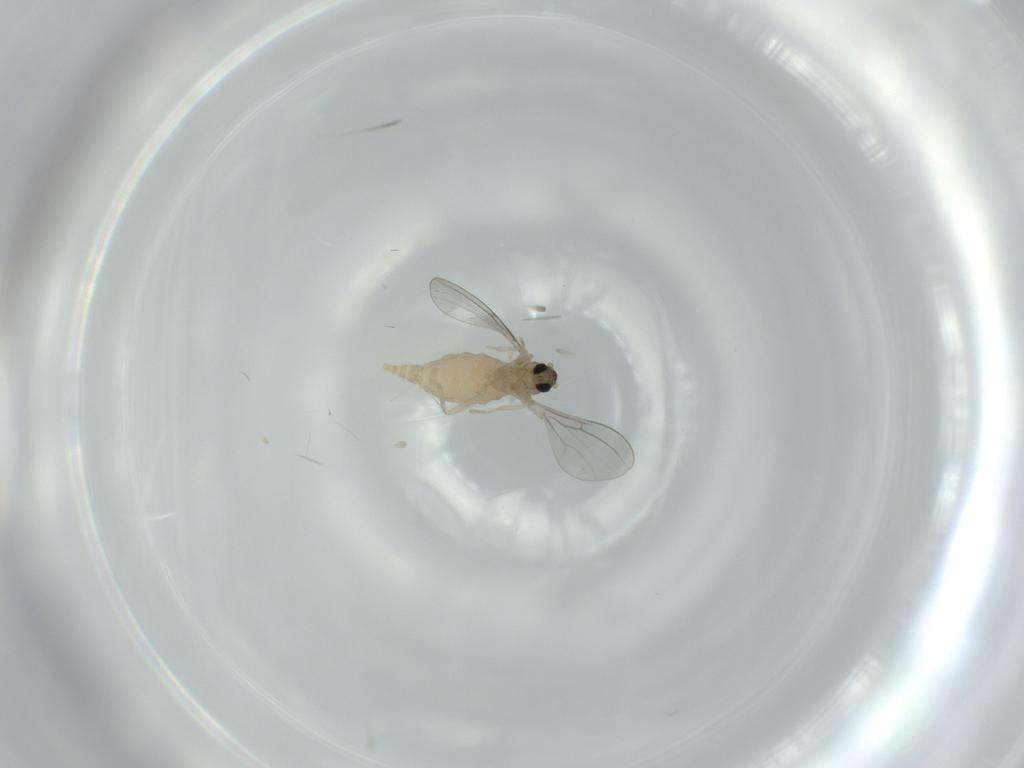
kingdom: Animalia
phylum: Arthropoda
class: Insecta
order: Diptera
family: Cecidomyiidae
